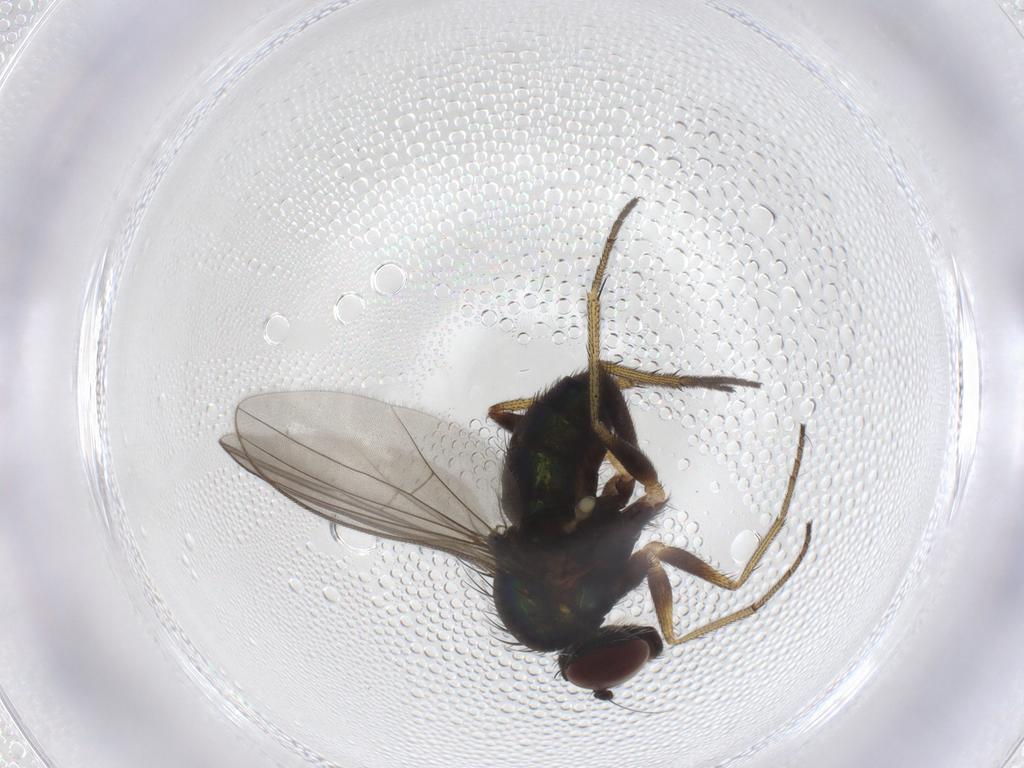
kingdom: Animalia
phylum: Arthropoda
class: Insecta
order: Diptera
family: Dolichopodidae
